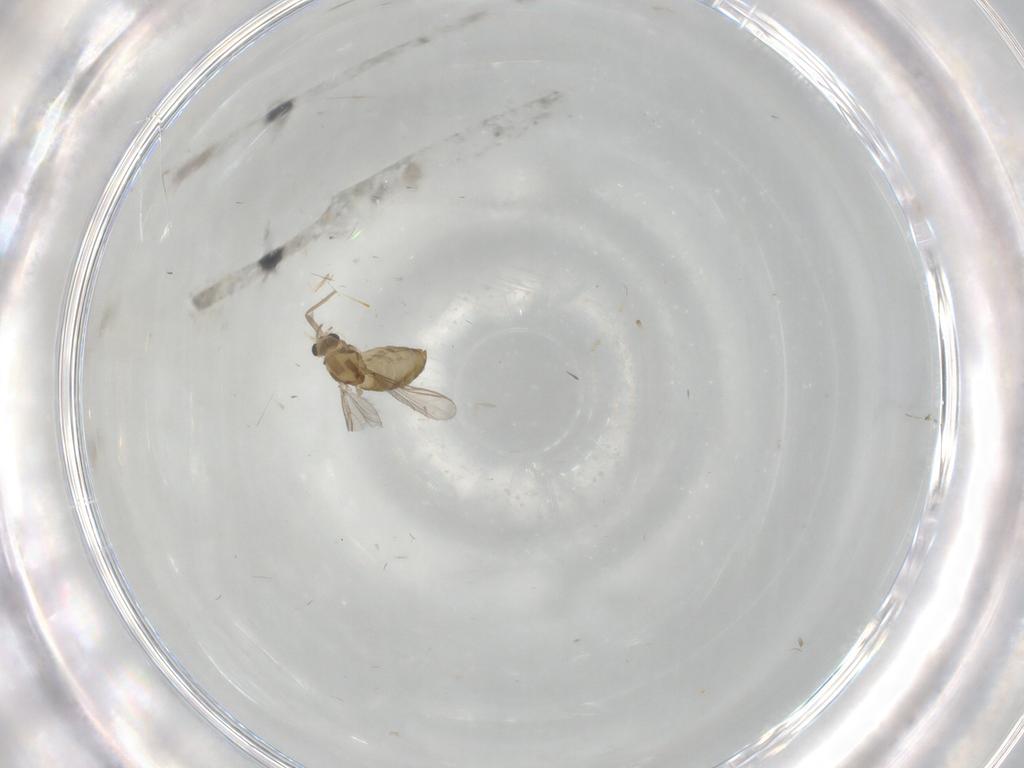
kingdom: Animalia
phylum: Arthropoda
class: Insecta
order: Diptera
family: Chironomidae
